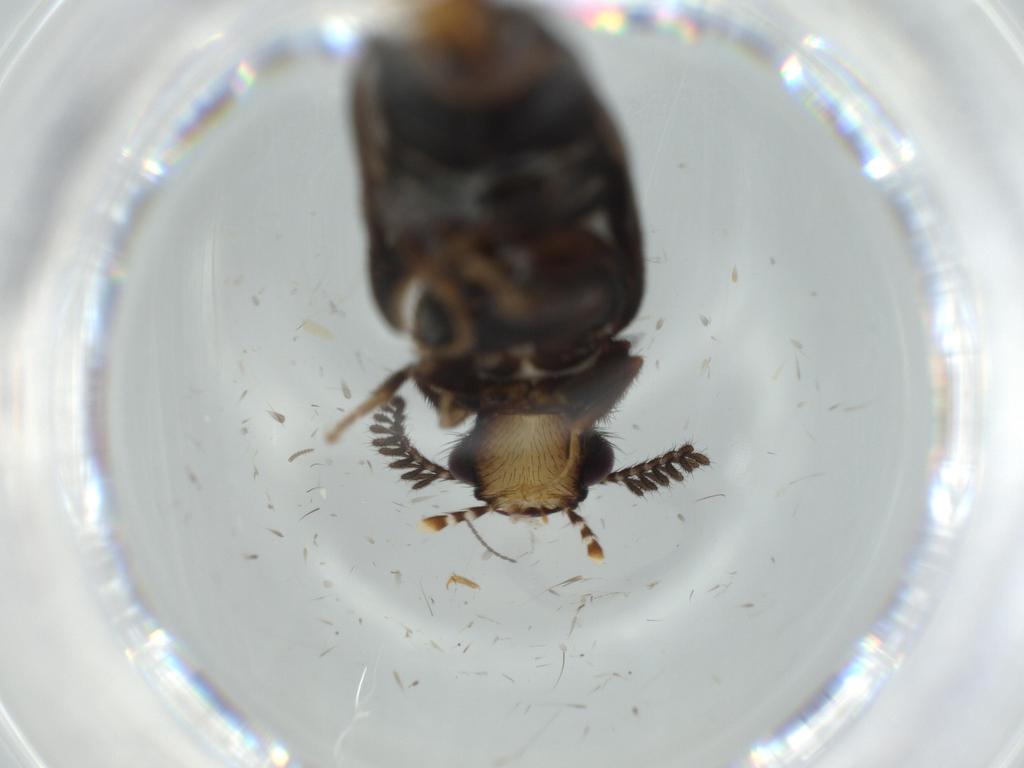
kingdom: Animalia
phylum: Arthropoda
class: Insecta
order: Coleoptera
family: Phengodidae
